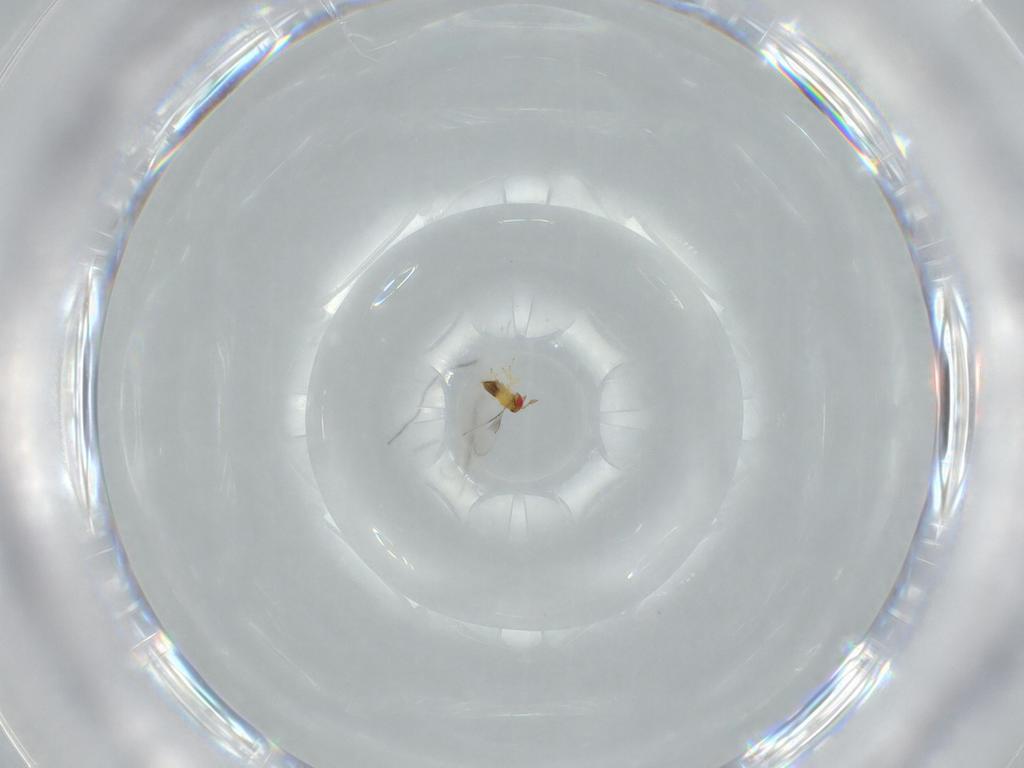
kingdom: Animalia
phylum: Arthropoda
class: Insecta
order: Hymenoptera
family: Trichogrammatidae
